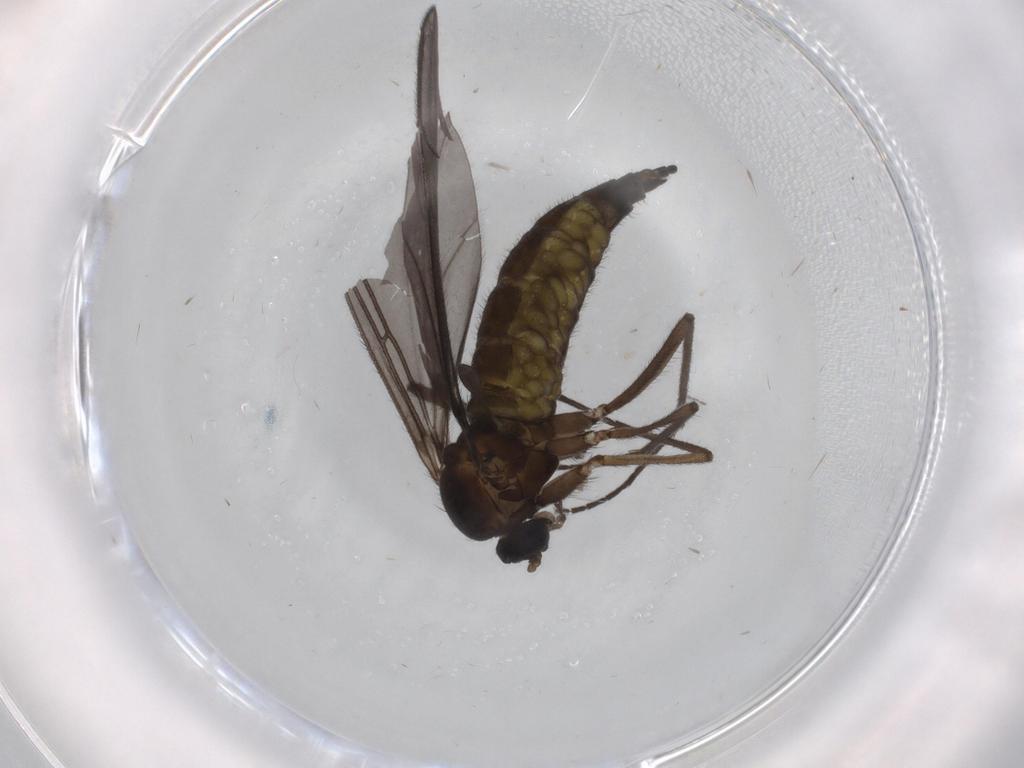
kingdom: Animalia
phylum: Arthropoda
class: Insecta
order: Diptera
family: Sciaridae
